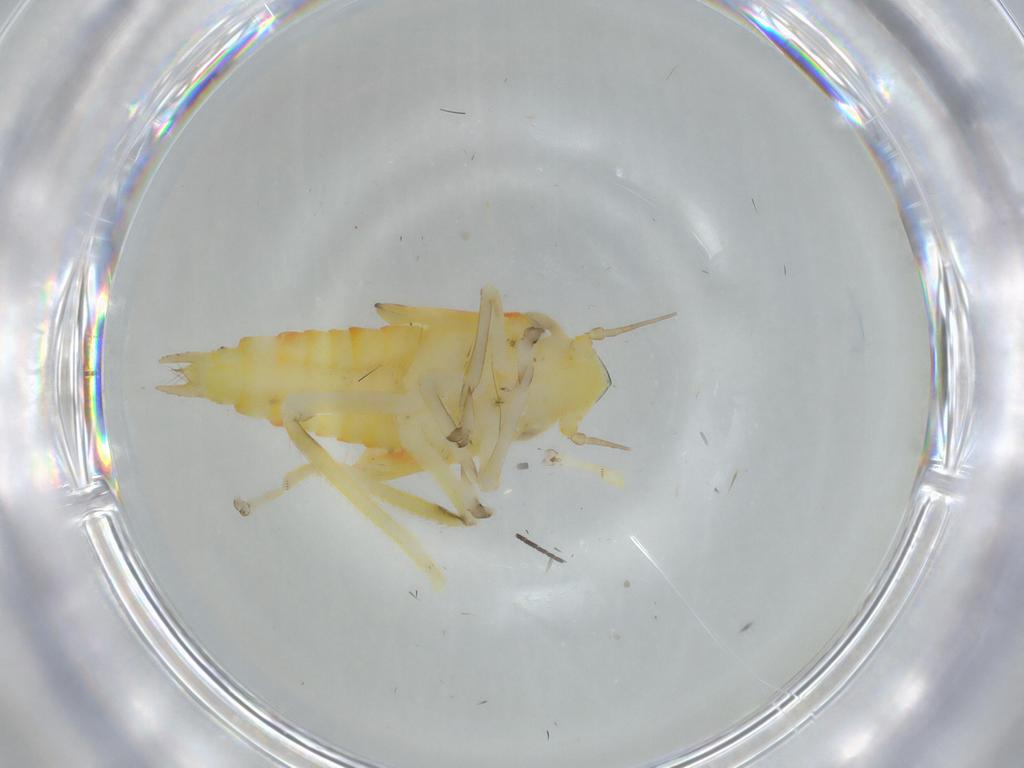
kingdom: Animalia
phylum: Arthropoda
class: Insecta
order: Hemiptera
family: Cicadellidae
